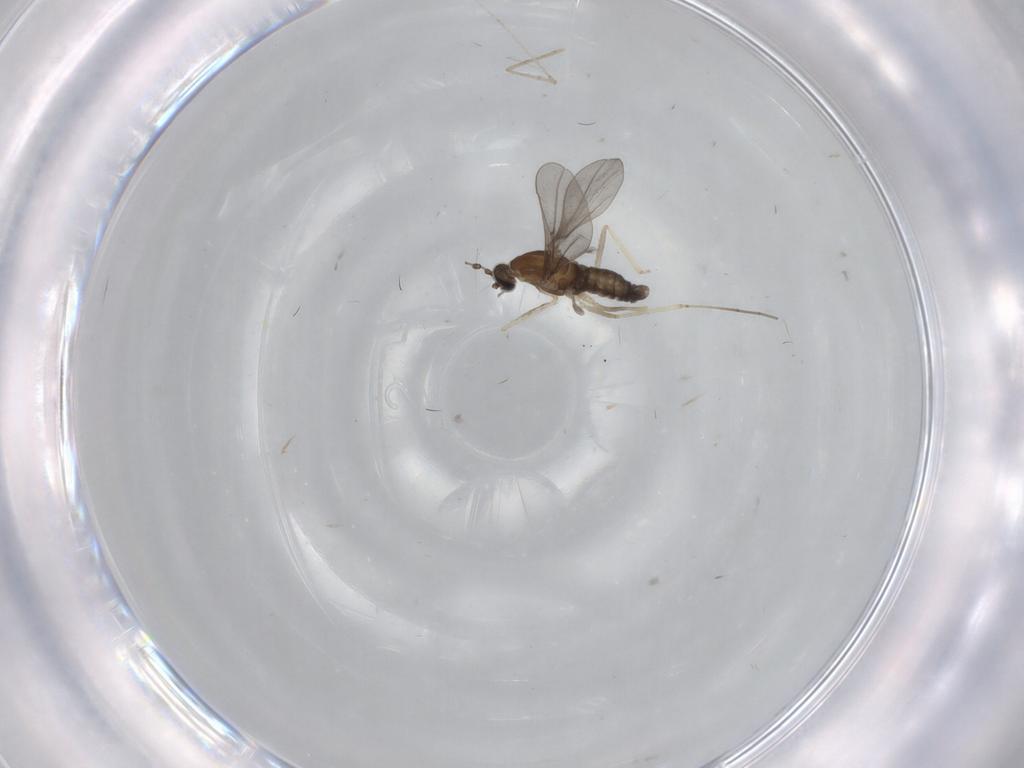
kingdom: Animalia
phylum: Arthropoda
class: Insecta
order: Diptera
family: Cecidomyiidae
